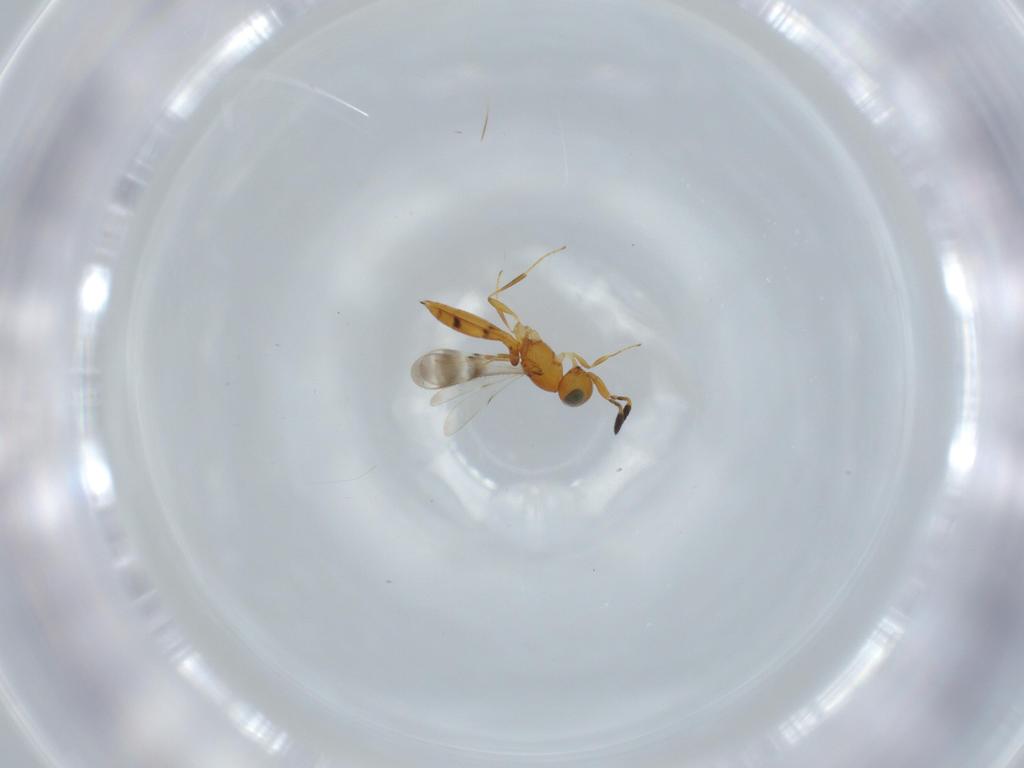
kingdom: Animalia
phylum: Arthropoda
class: Insecta
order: Hymenoptera
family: Scelionidae
